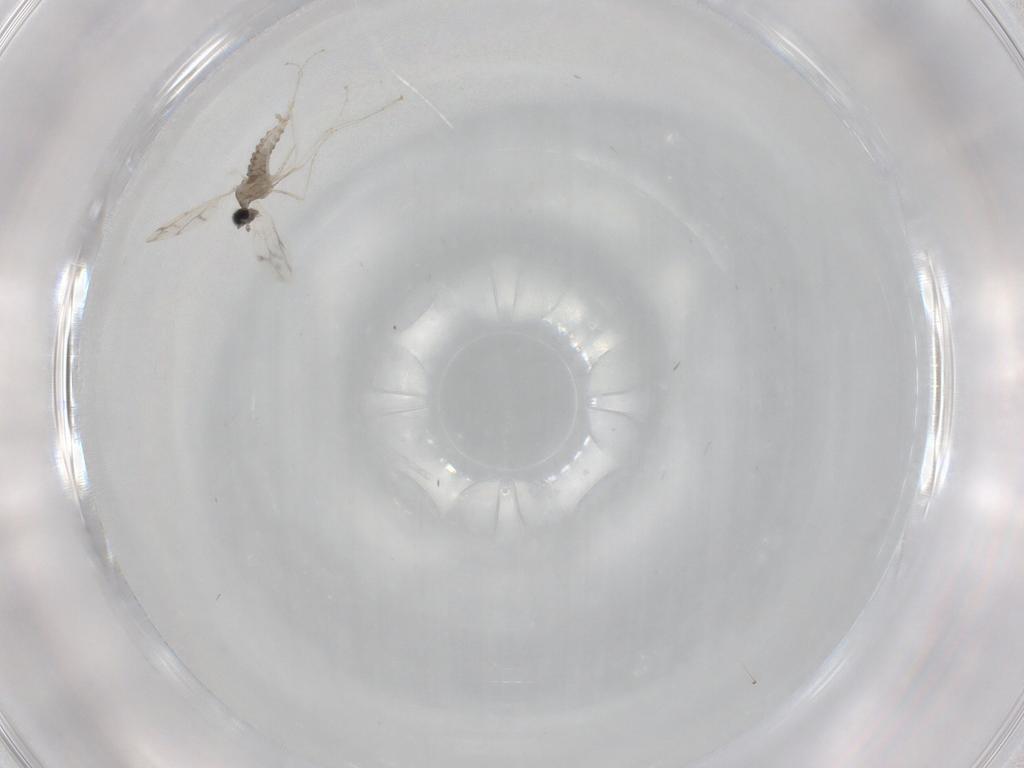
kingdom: Animalia
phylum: Arthropoda
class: Insecta
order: Diptera
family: Cecidomyiidae
